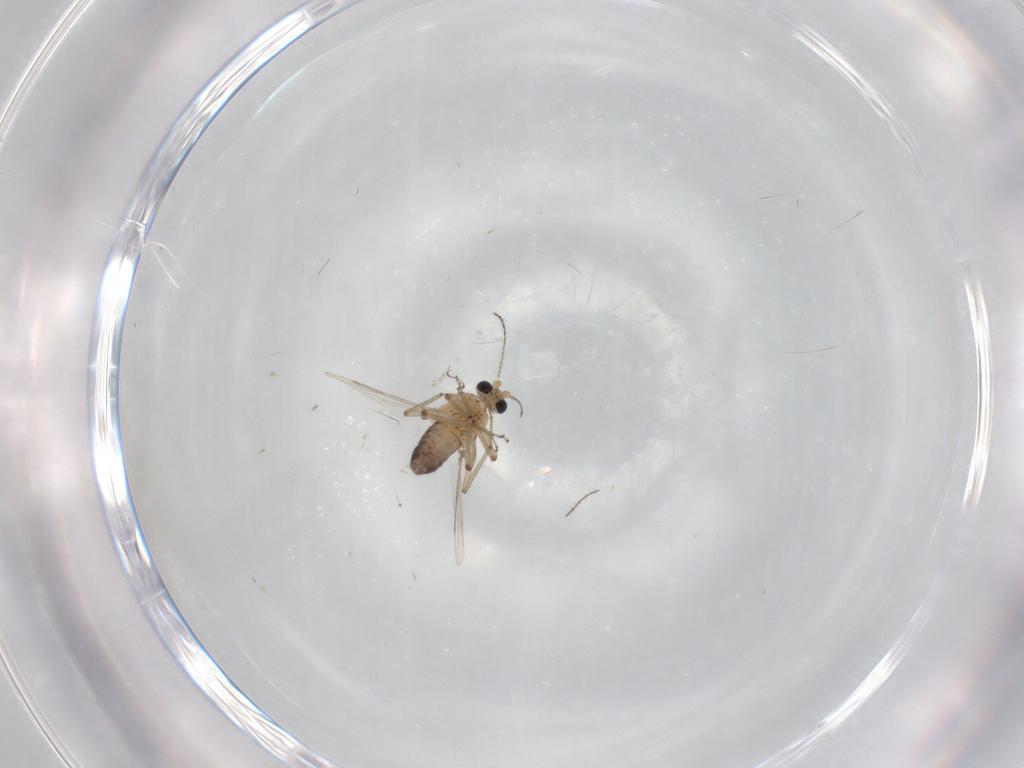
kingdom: Animalia
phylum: Arthropoda
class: Insecta
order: Diptera
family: Ceratopogonidae
